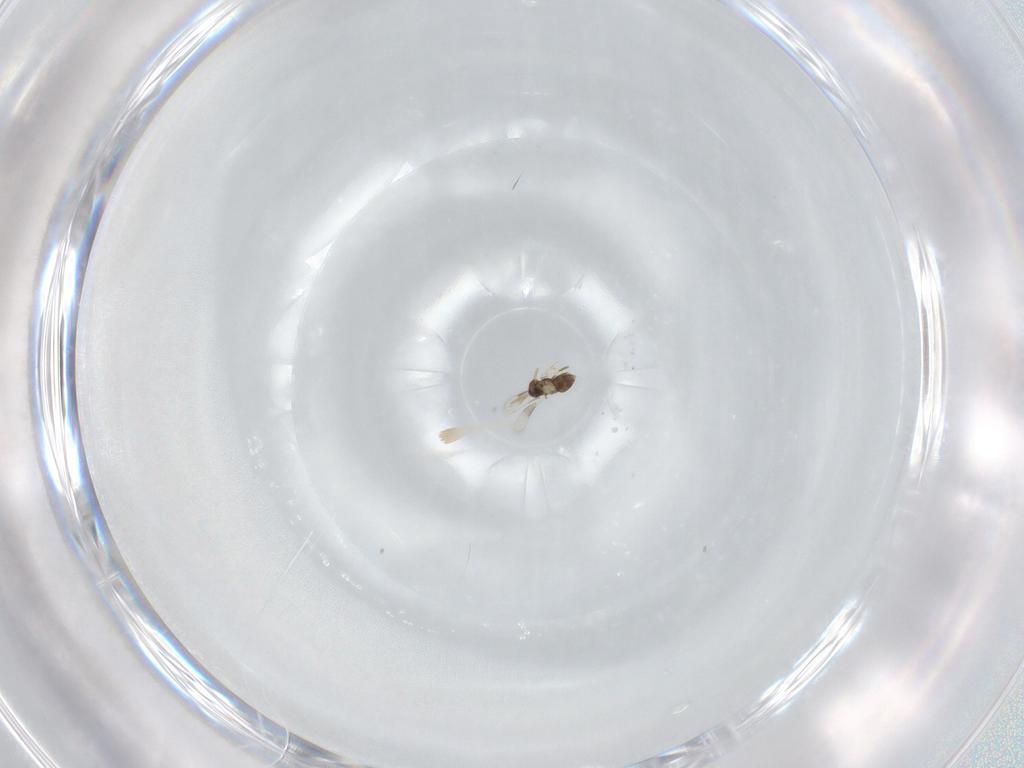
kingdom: Animalia
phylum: Arthropoda
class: Insecta
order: Hymenoptera
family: Aphelinidae
